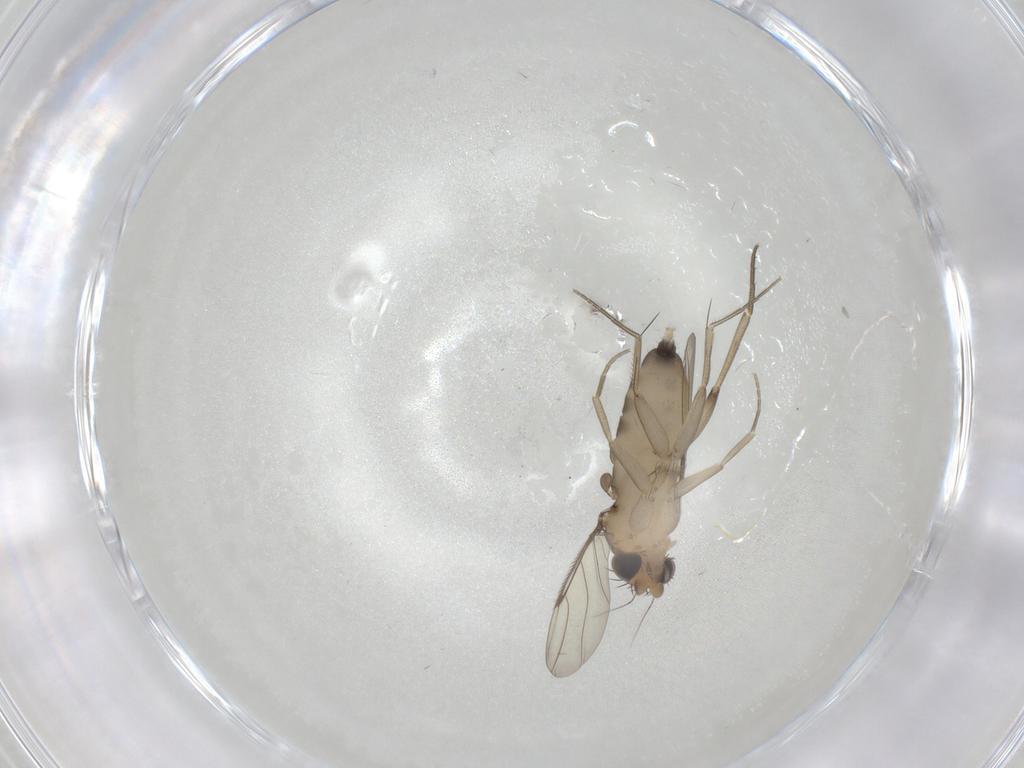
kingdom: Animalia
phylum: Arthropoda
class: Insecta
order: Diptera
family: Phoridae
